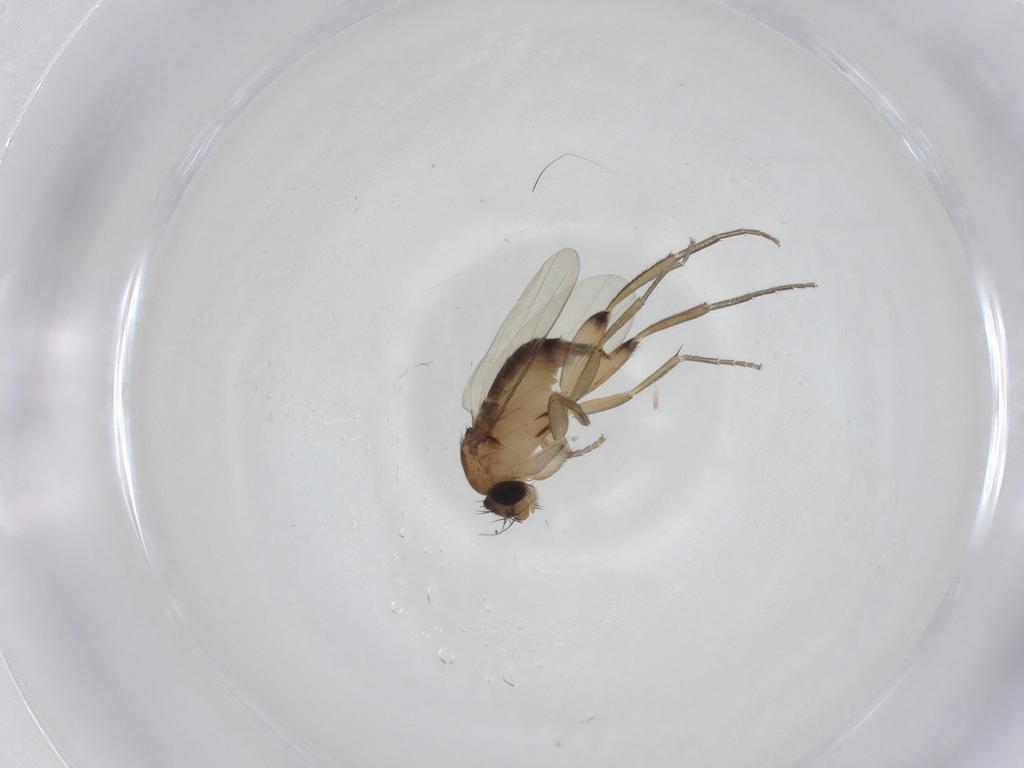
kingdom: Animalia
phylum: Arthropoda
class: Insecta
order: Diptera
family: Phoridae
